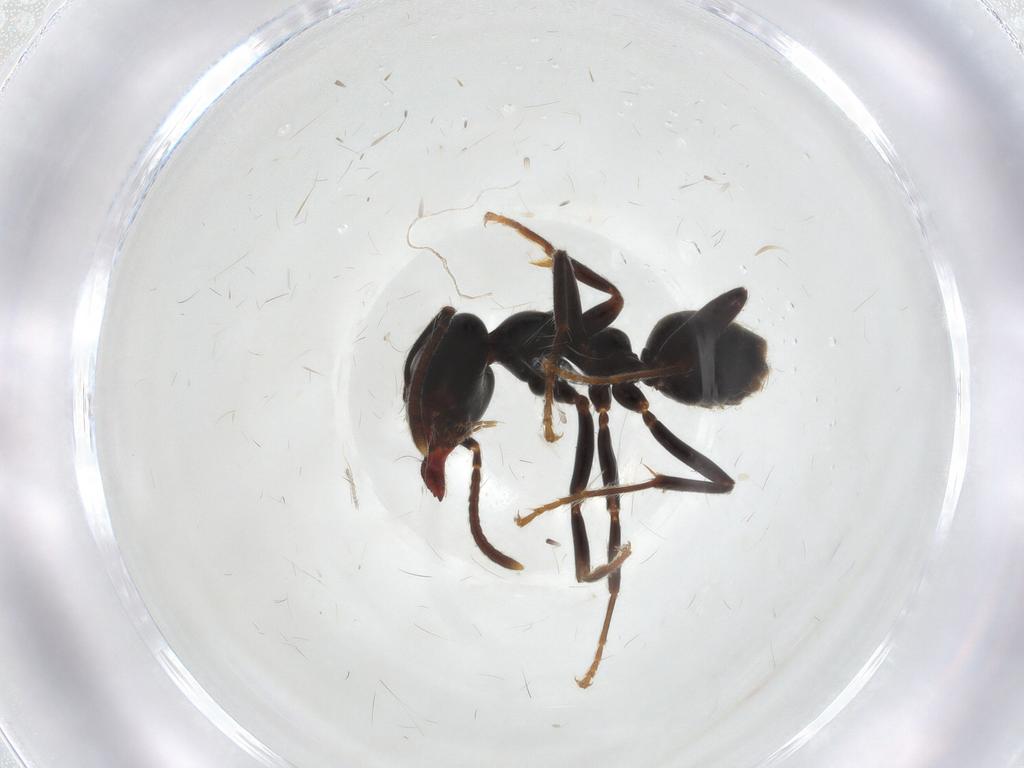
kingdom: Animalia
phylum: Arthropoda
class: Insecta
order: Hymenoptera
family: Formicidae
